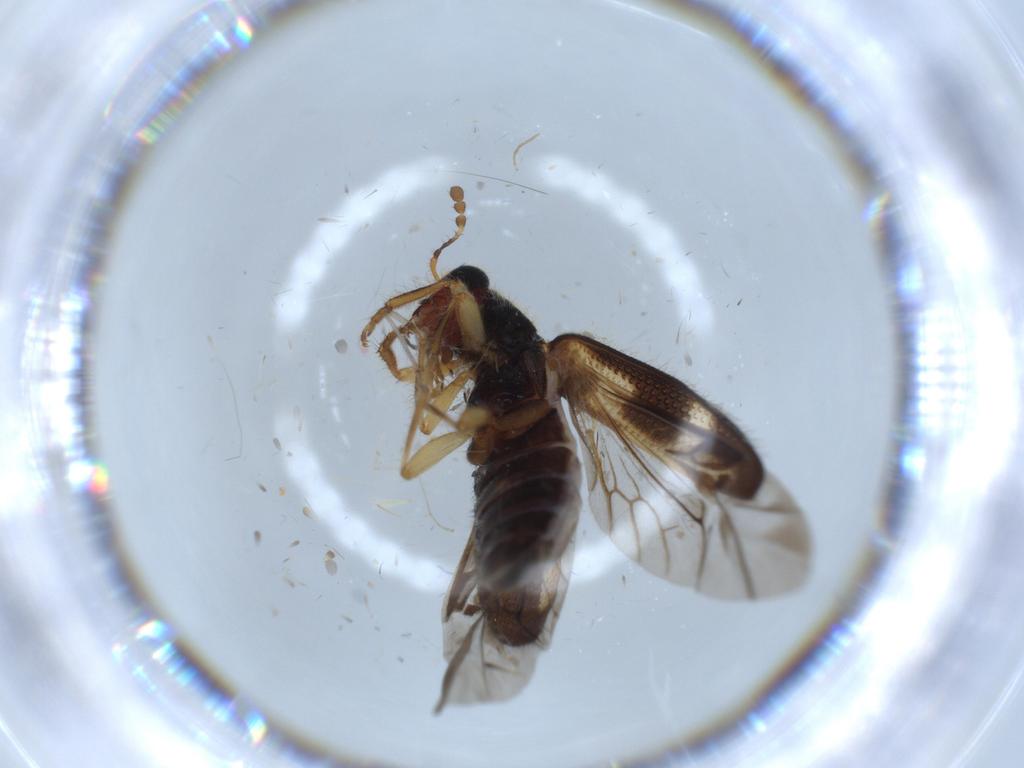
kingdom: Animalia
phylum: Arthropoda
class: Insecta
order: Coleoptera
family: Cleridae
